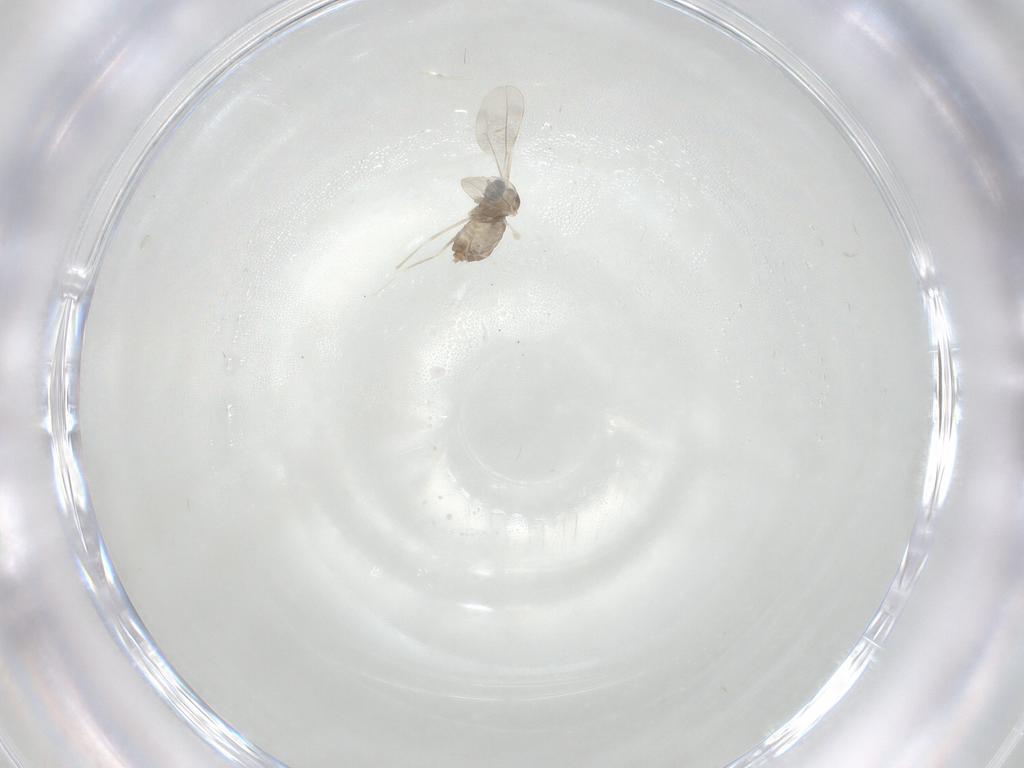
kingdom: Animalia
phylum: Arthropoda
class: Insecta
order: Diptera
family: Cecidomyiidae
